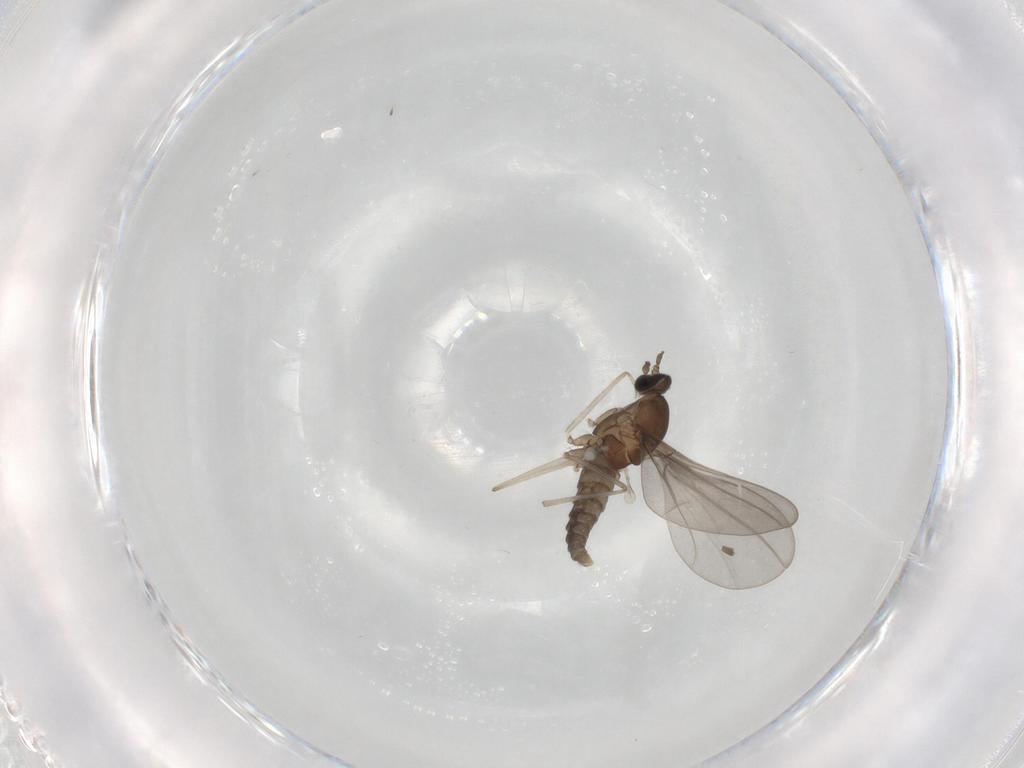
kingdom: Animalia
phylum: Arthropoda
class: Insecta
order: Diptera
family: Cecidomyiidae
